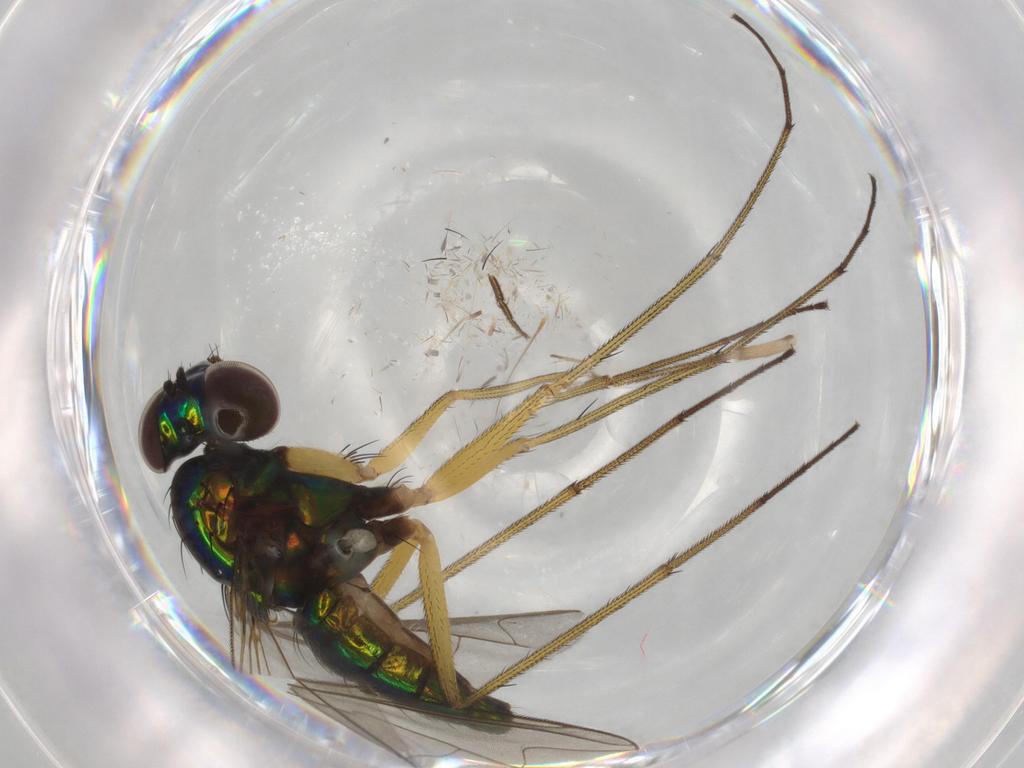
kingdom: Animalia
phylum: Arthropoda
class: Insecta
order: Diptera
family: Dolichopodidae
